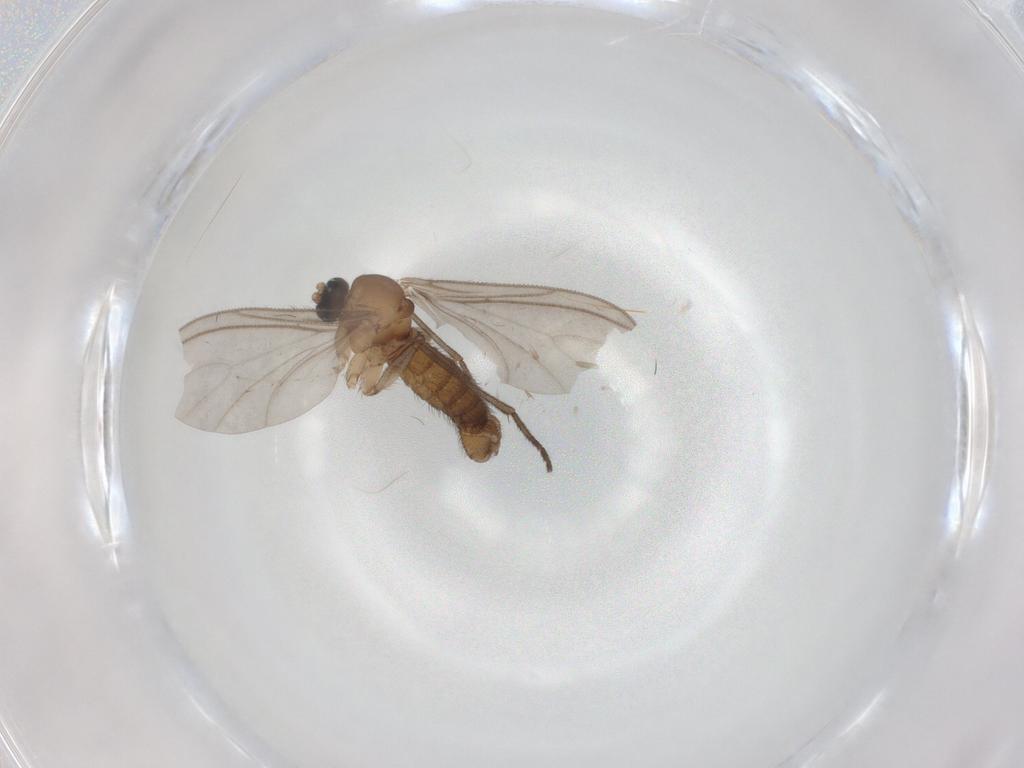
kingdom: Animalia
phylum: Arthropoda
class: Insecta
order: Diptera
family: Sciaridae
